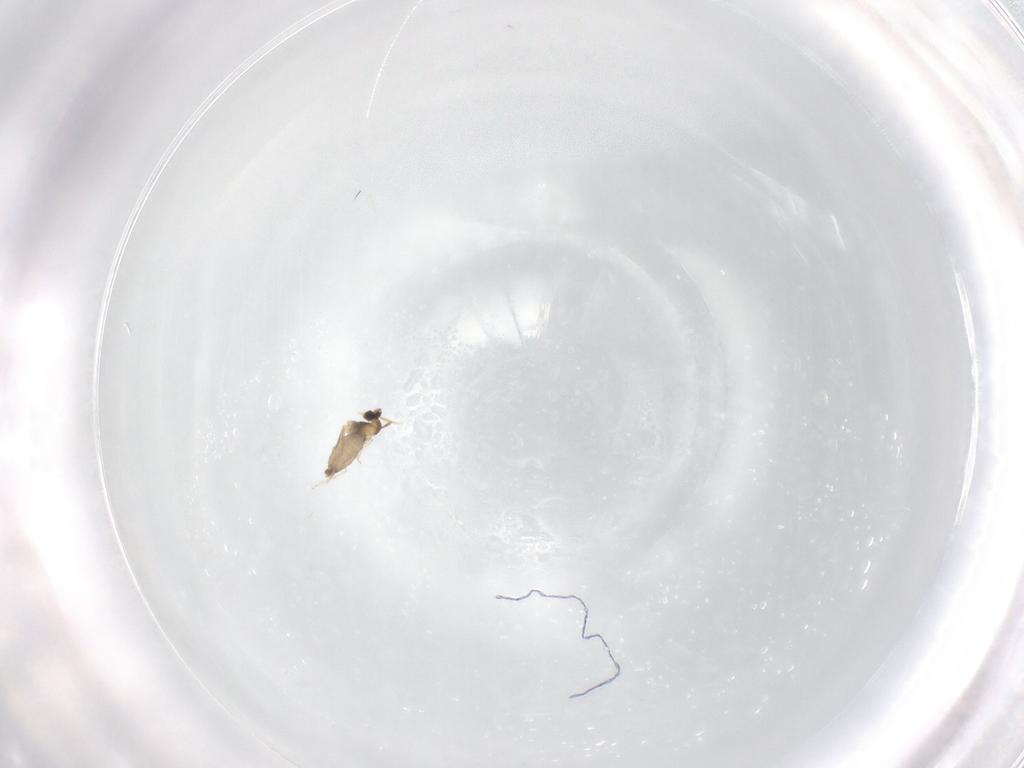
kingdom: Animalia
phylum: Arthropoda
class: Insecta
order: Diptera
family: Cecidomyiidae
